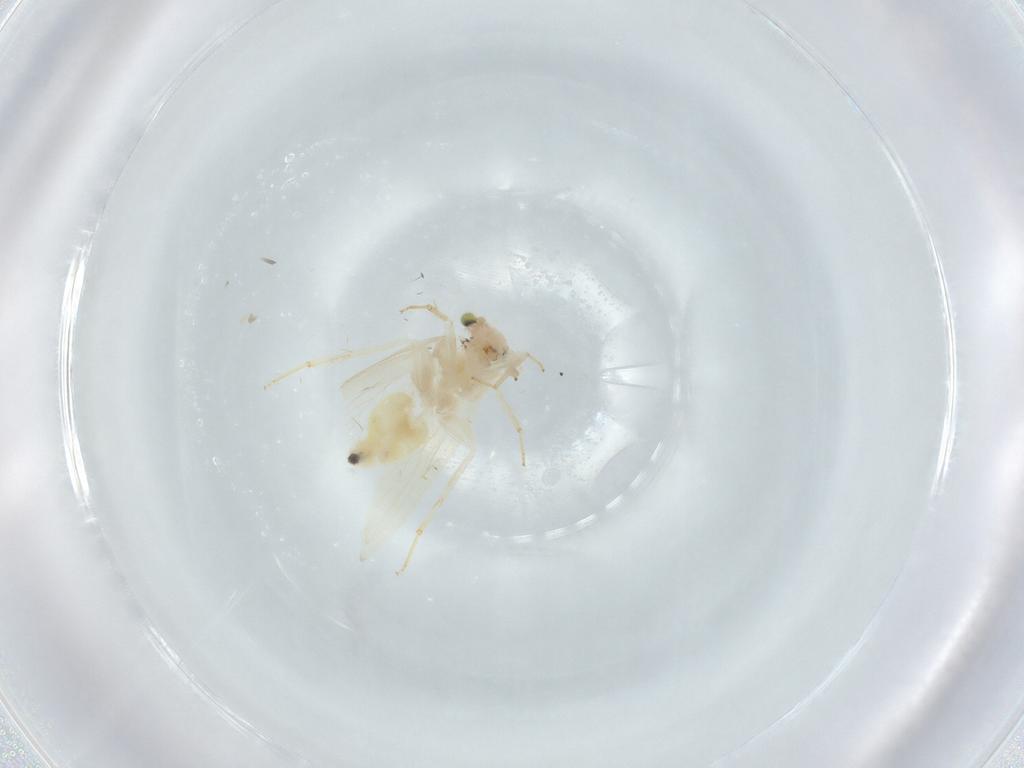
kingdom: Animalia
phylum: Arthropoda
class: Insecta
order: Psocodea
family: Lepidopsocidae
